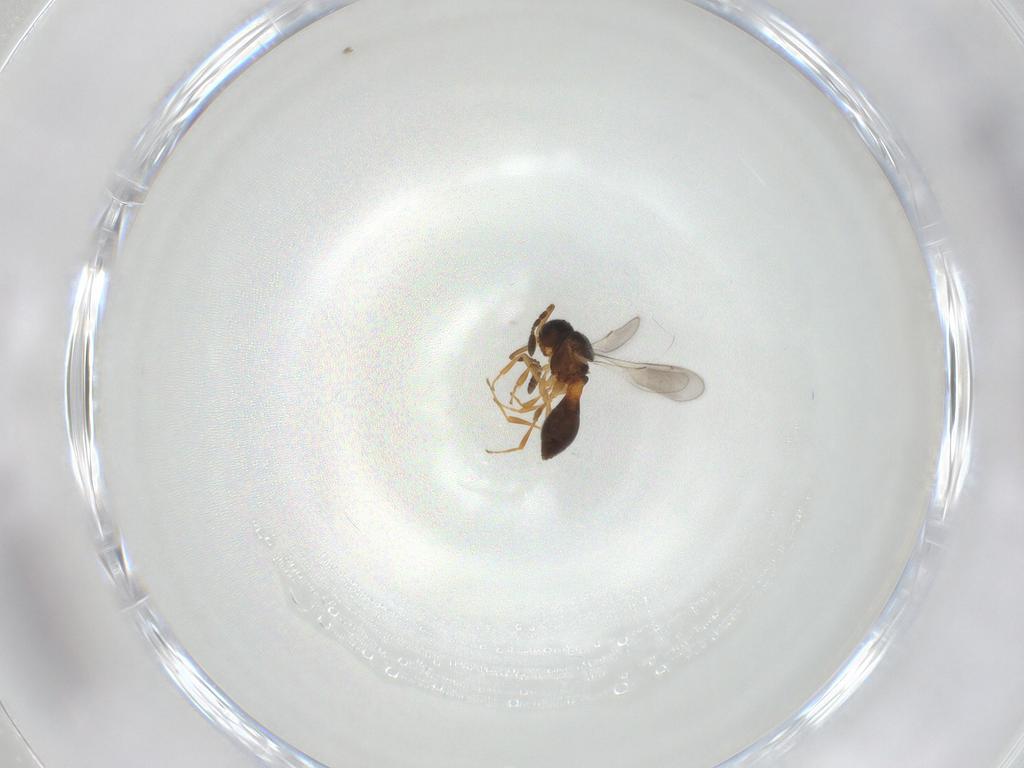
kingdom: Animalia
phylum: Arthropoda
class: Insecta
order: Hymenoptera
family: Scelionidae
